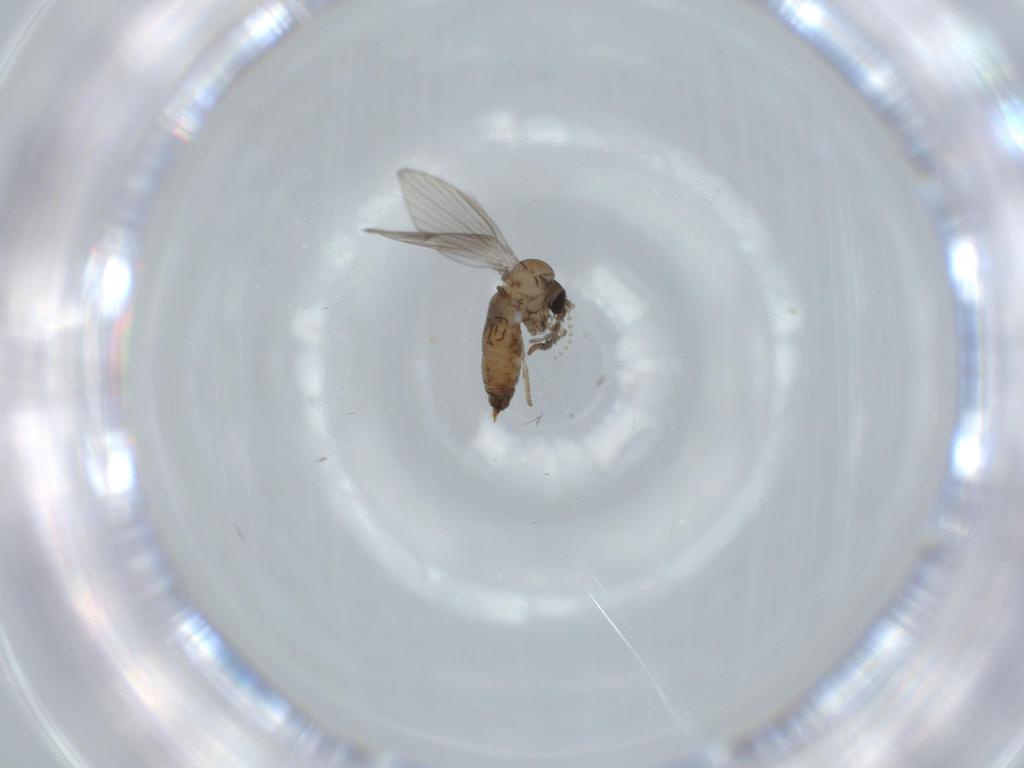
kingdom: Animalia
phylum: Arthropoda
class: Insecta
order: Diptera
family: Psychodidae
